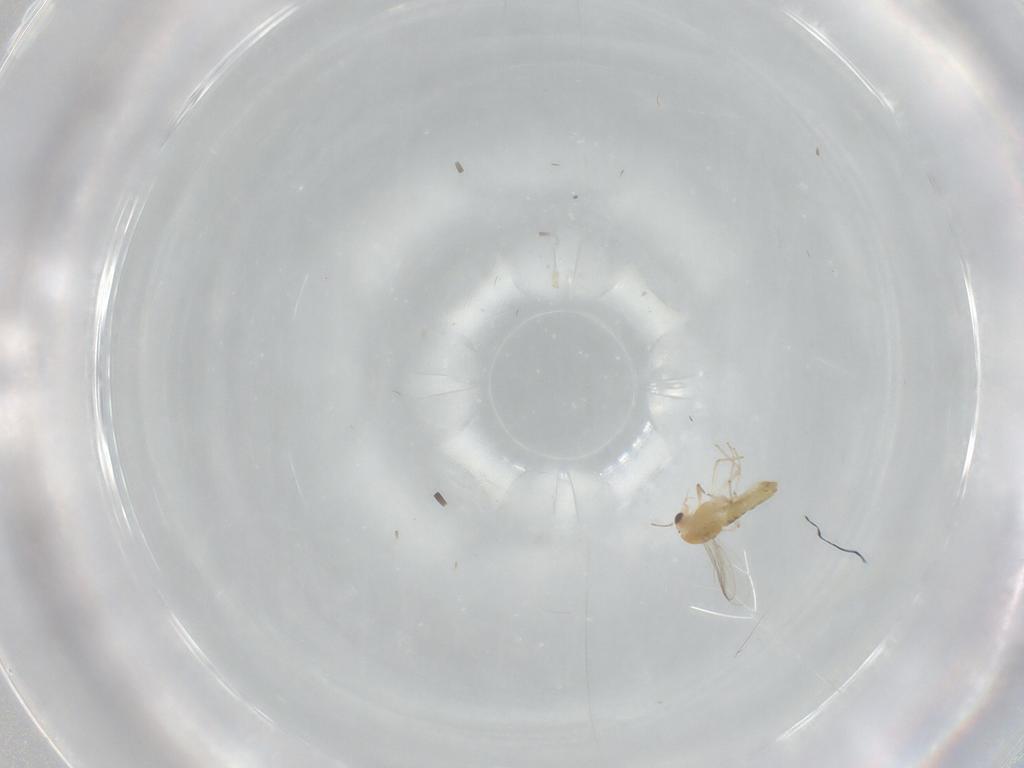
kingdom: Animalia
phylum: Arthropoda
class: Insecta
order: Diptera
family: Chironomidae
